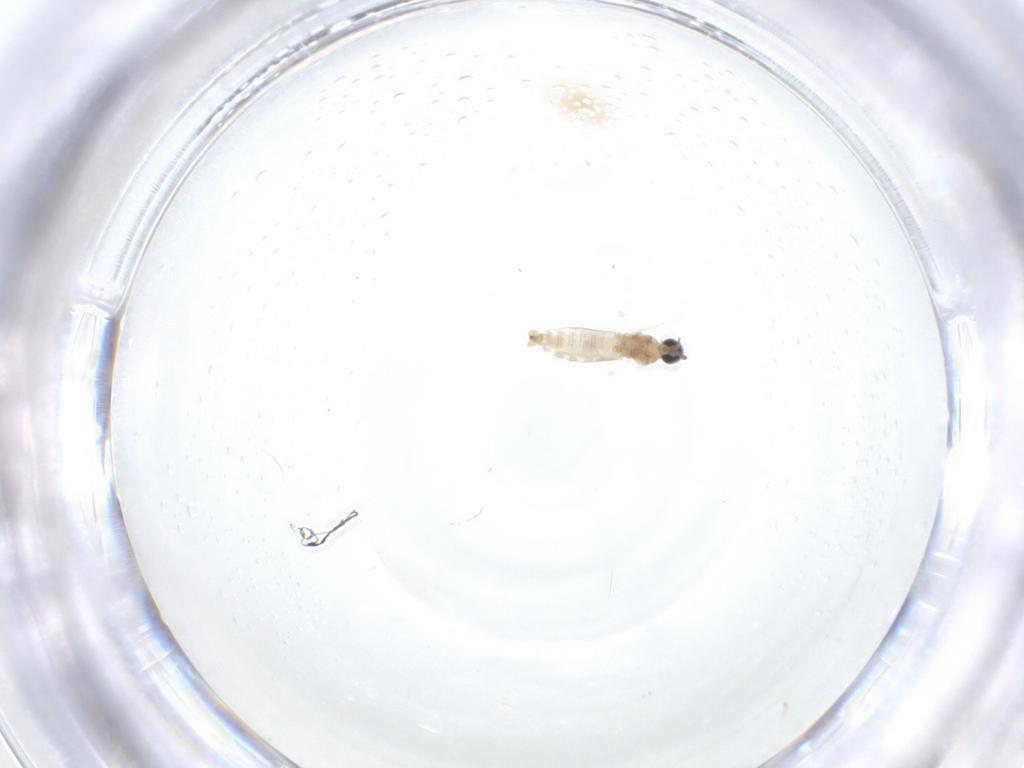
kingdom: Animalia
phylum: Arthropoda
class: Insecta
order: Diptera
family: Cecidomyiidae
